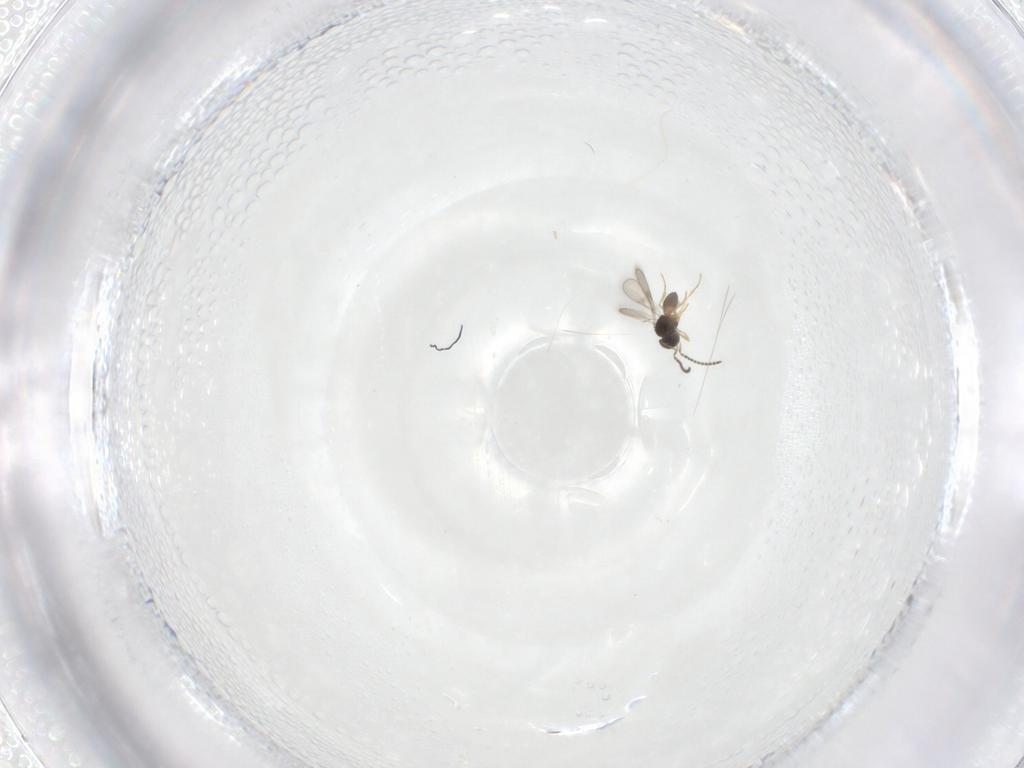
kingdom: Animalia
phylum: Arthropoda
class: Insecta
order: Hymenoptera
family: Scelionidae
